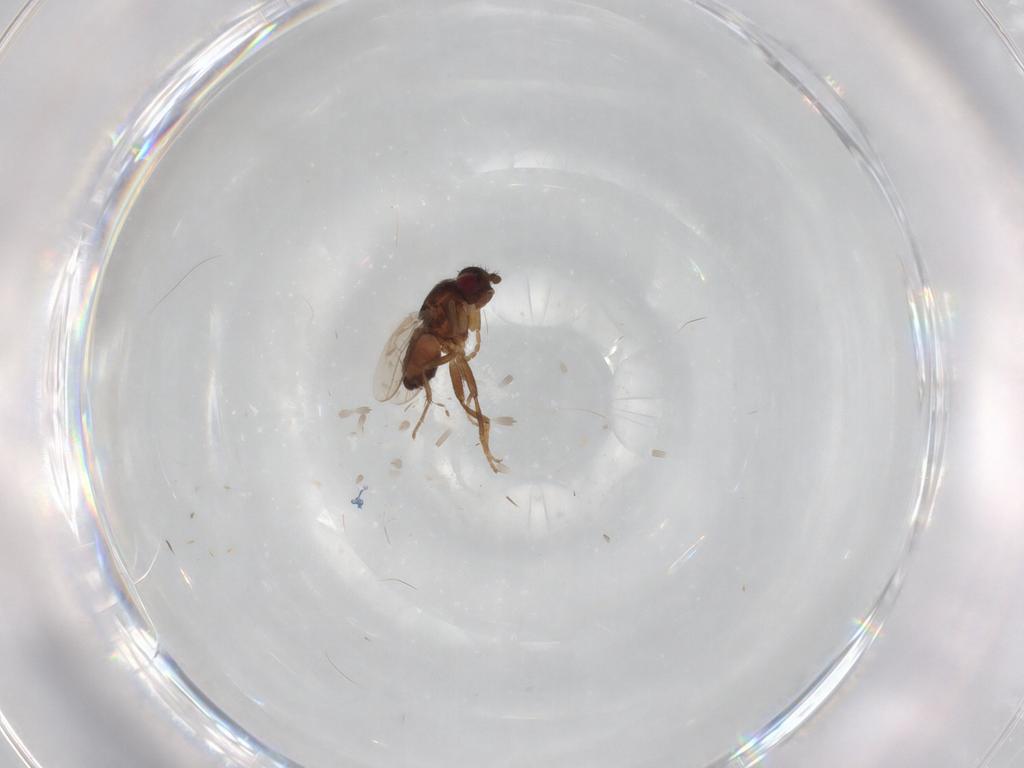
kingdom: Animalia
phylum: Arthropoda
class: Insecta
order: Diptera
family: Sphaeroceridae
